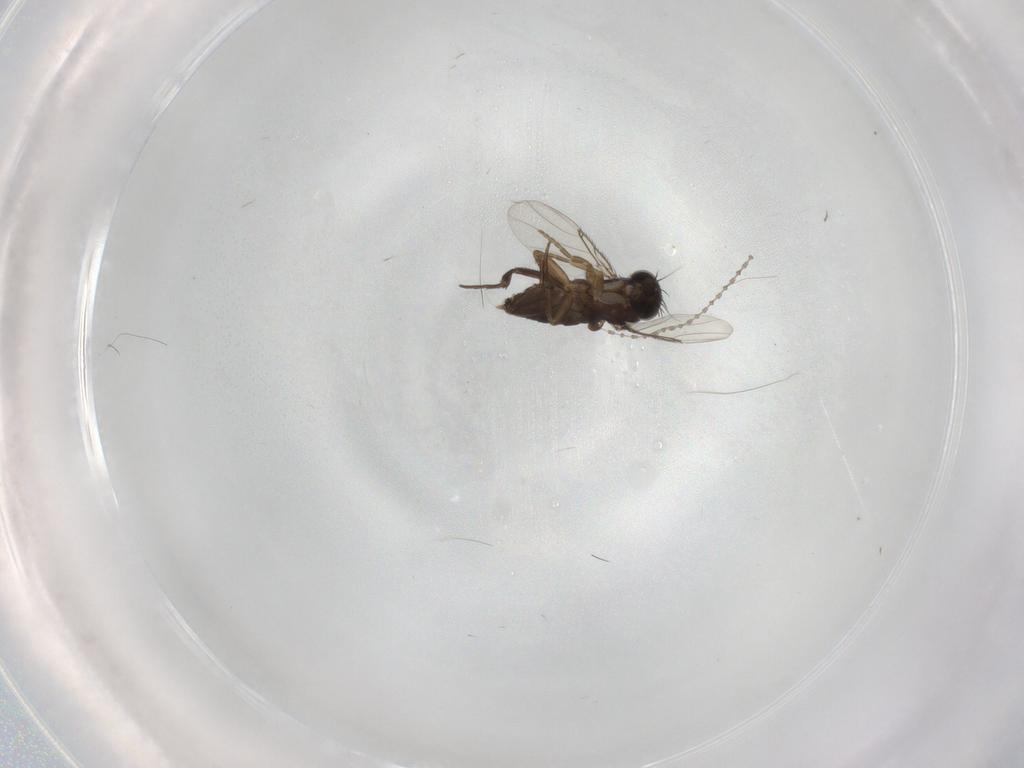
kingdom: Animalia
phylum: Arthropoda
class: Insecta
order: Diptera
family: Phoridae
